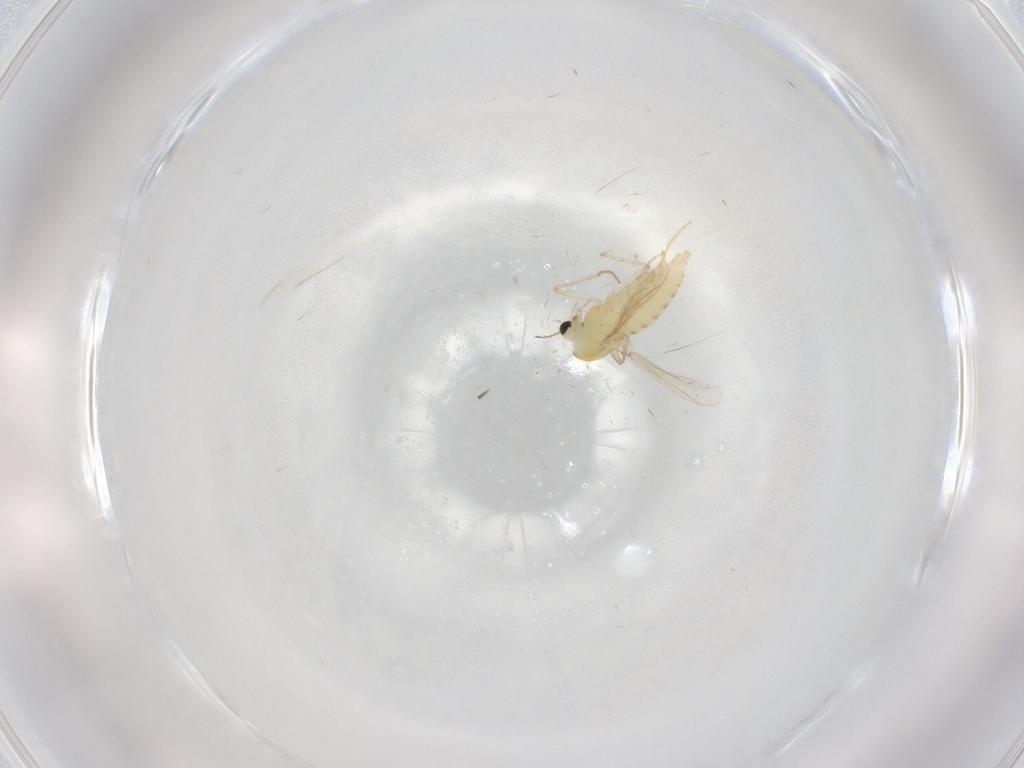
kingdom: Animalia
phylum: Arthropoda
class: Insecta
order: Diptera
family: Chironomidae
